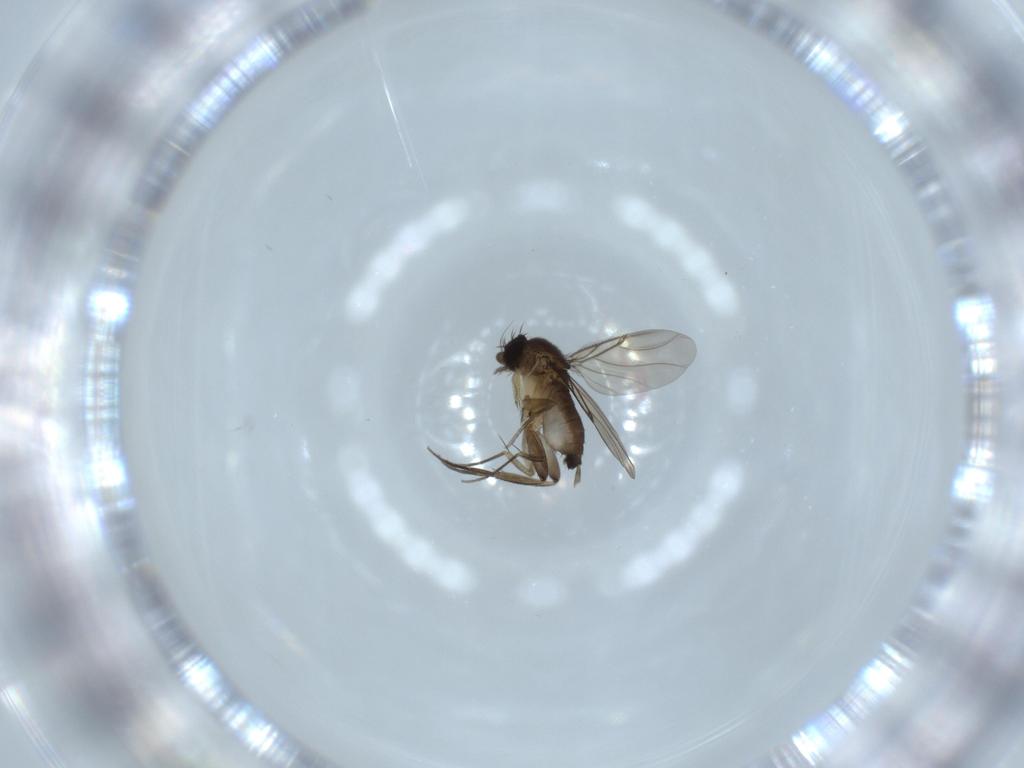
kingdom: Animalia
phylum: Arthropoda
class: Insecta
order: Diptera
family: Phoridae
